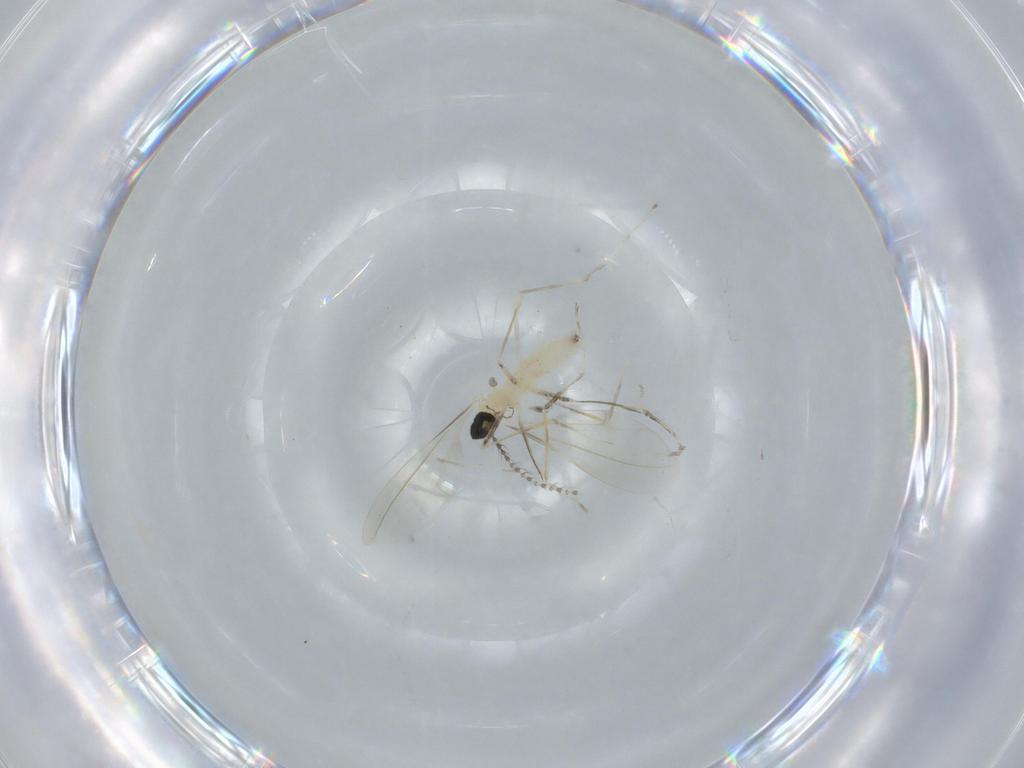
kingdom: Animalia
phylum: Arthropoda
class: Insecta
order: Diptera
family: Cecidomyiidae
